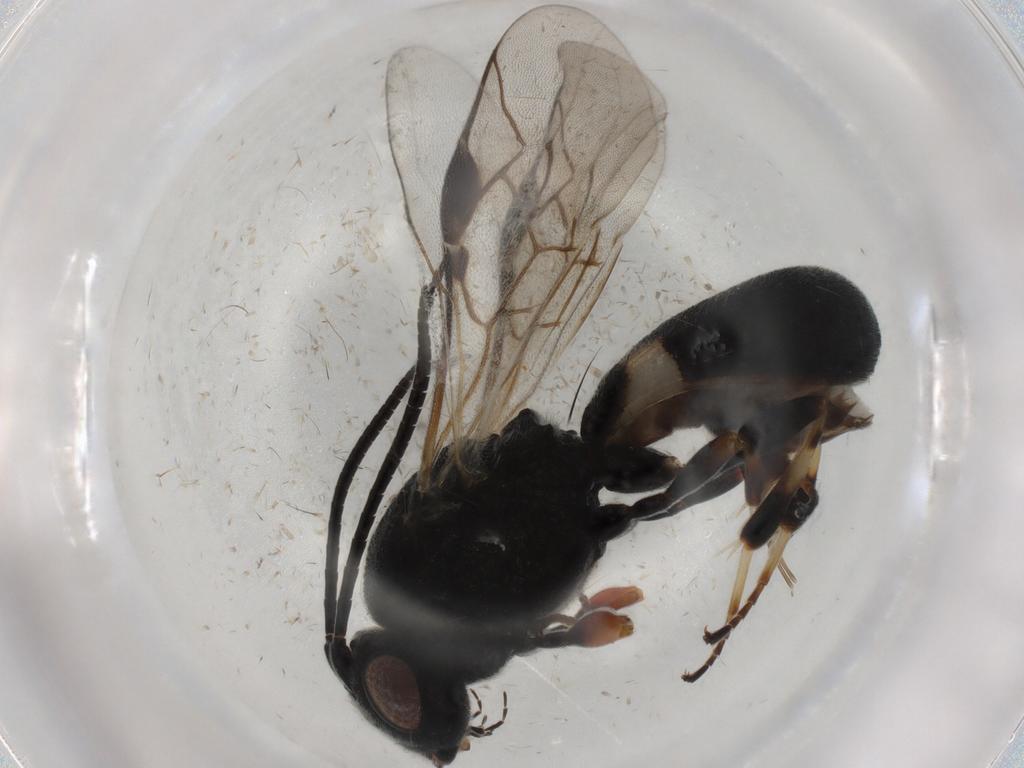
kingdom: Animalia
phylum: Arthropoda
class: Insecta
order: Hymenoptera
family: Braconidae
